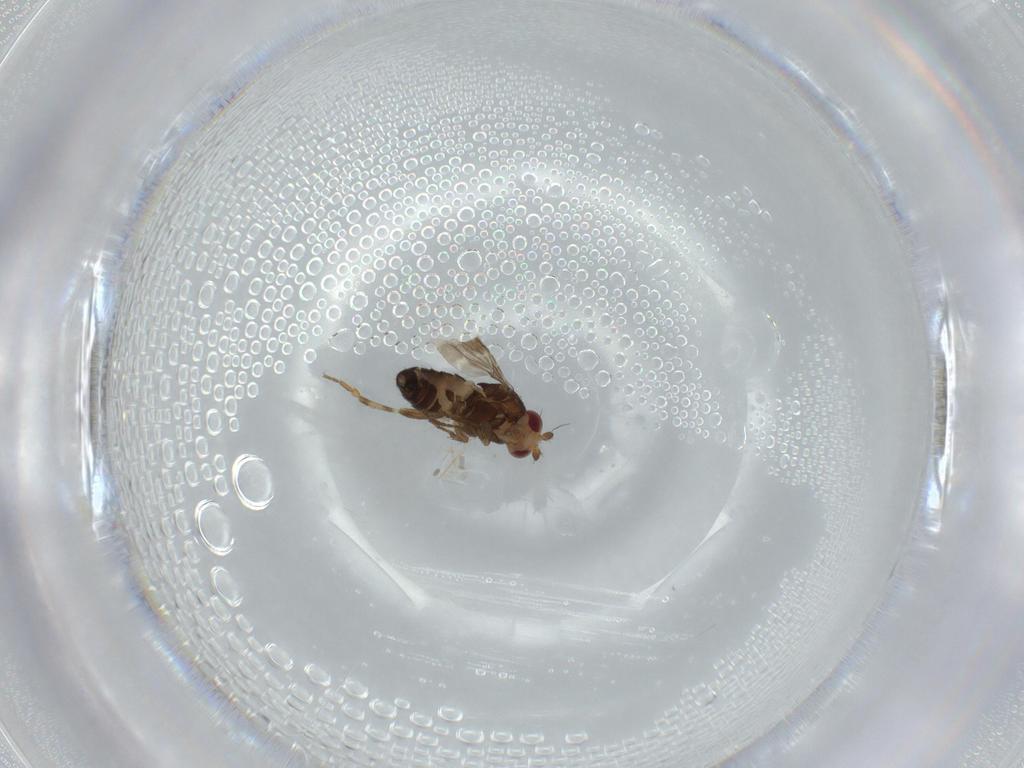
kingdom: Animalia
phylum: Arthropoda
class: Insecta
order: Diptera
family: Sphaeroceridae
